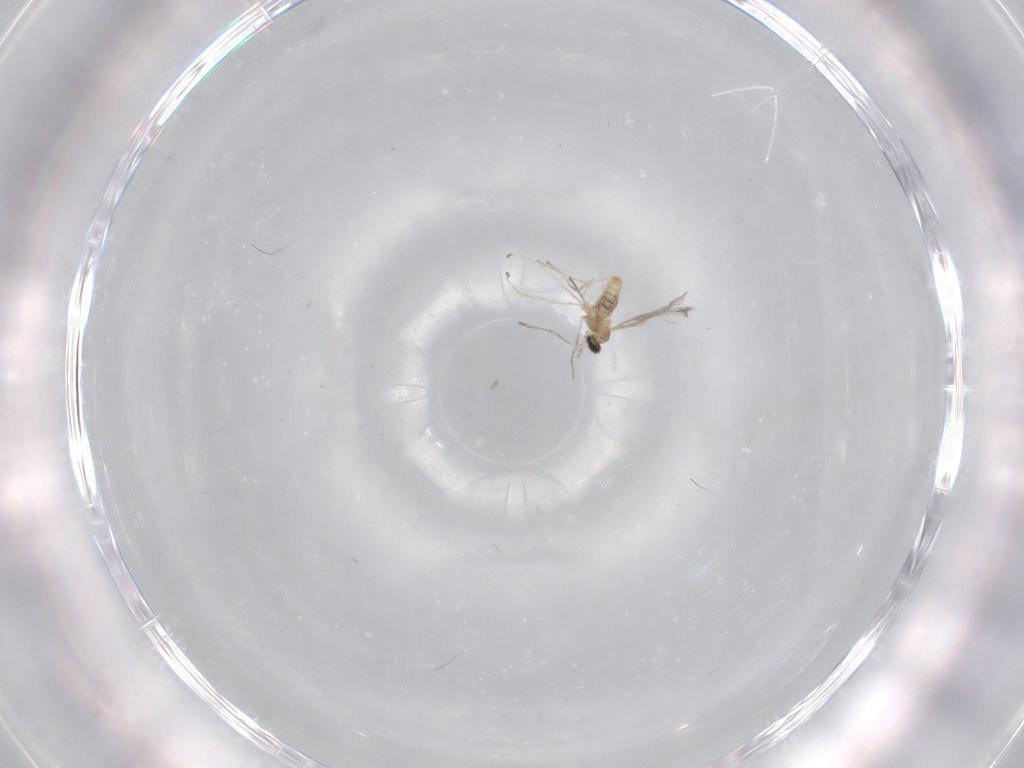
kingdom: Animalia
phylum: Arthropoda
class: Insecta
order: Diptera
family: Cecidomyiidae
